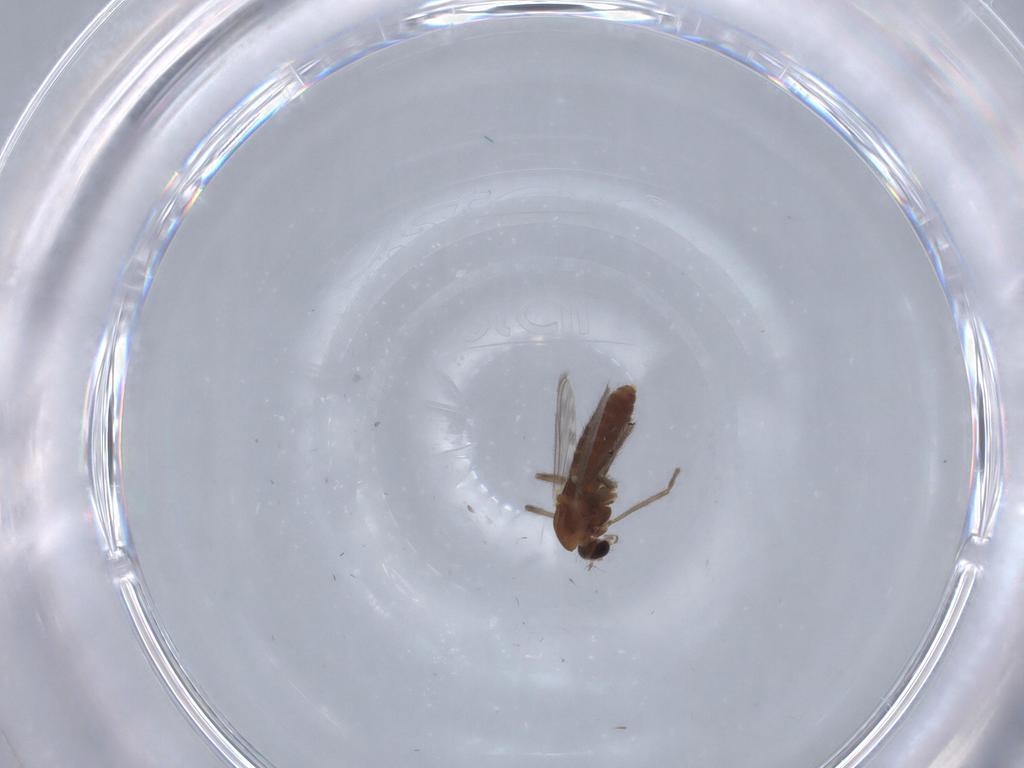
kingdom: Animalia
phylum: Arthropoda
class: Insecta
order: Diptera
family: Chironomidae
